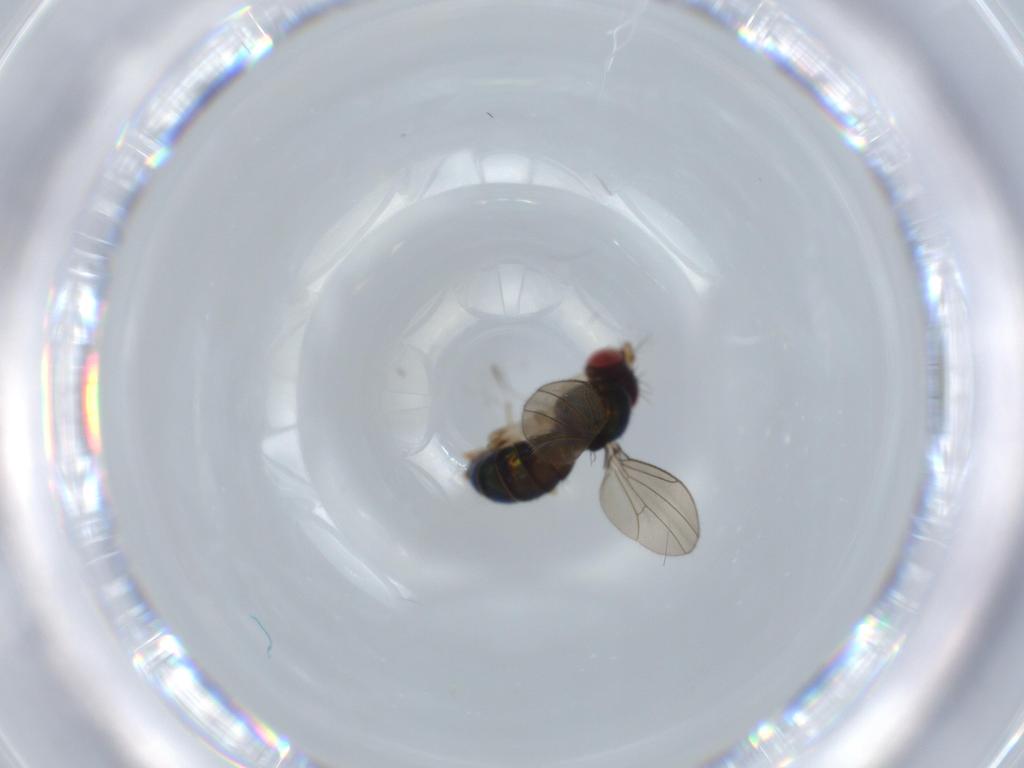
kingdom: Animalia
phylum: Arthropoda
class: Insecta
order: Diptera
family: Drosophilidae
